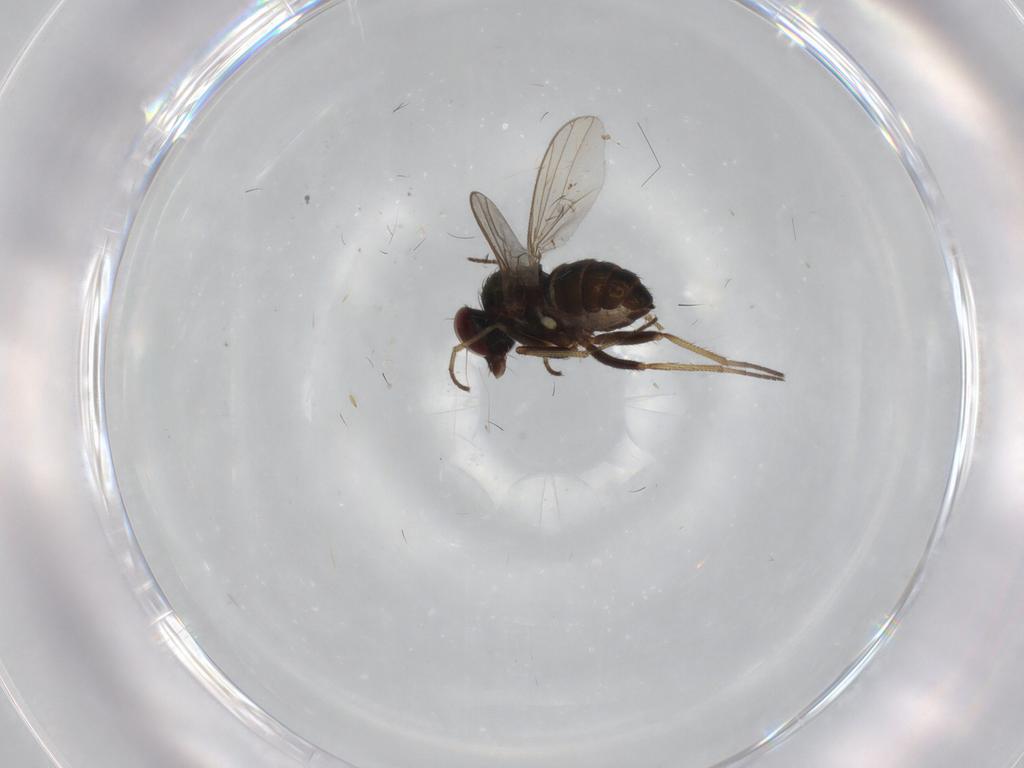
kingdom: Animalia
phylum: Arthropoda
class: Insecta
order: Diptera
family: Dolichopodidae
